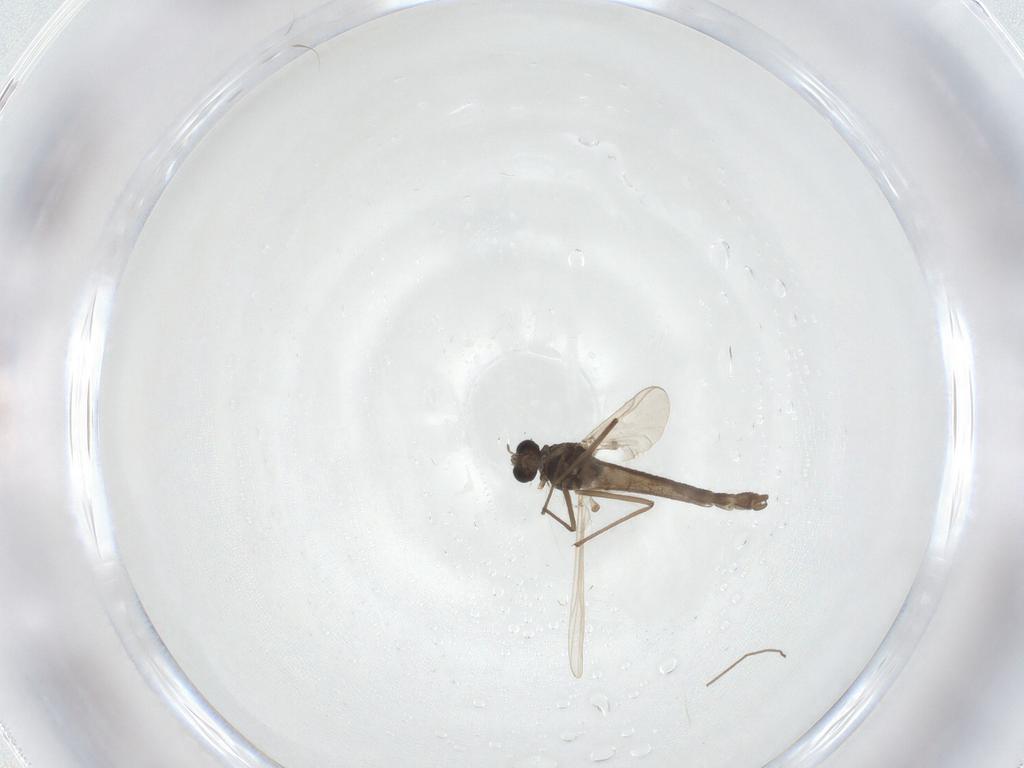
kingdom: Animalia
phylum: Arthropoda
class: Insecta
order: Diptera
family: Chironomidae
